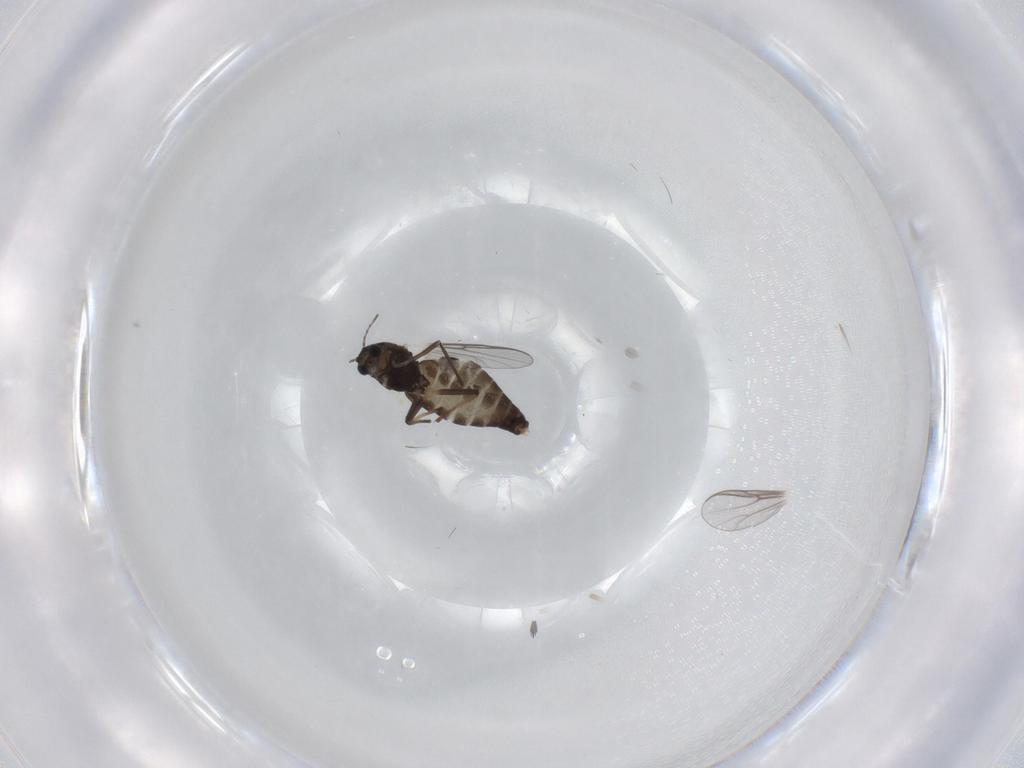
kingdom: Animalia
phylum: Arthropoda
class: Insecta
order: Diptera
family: Chironomidae
